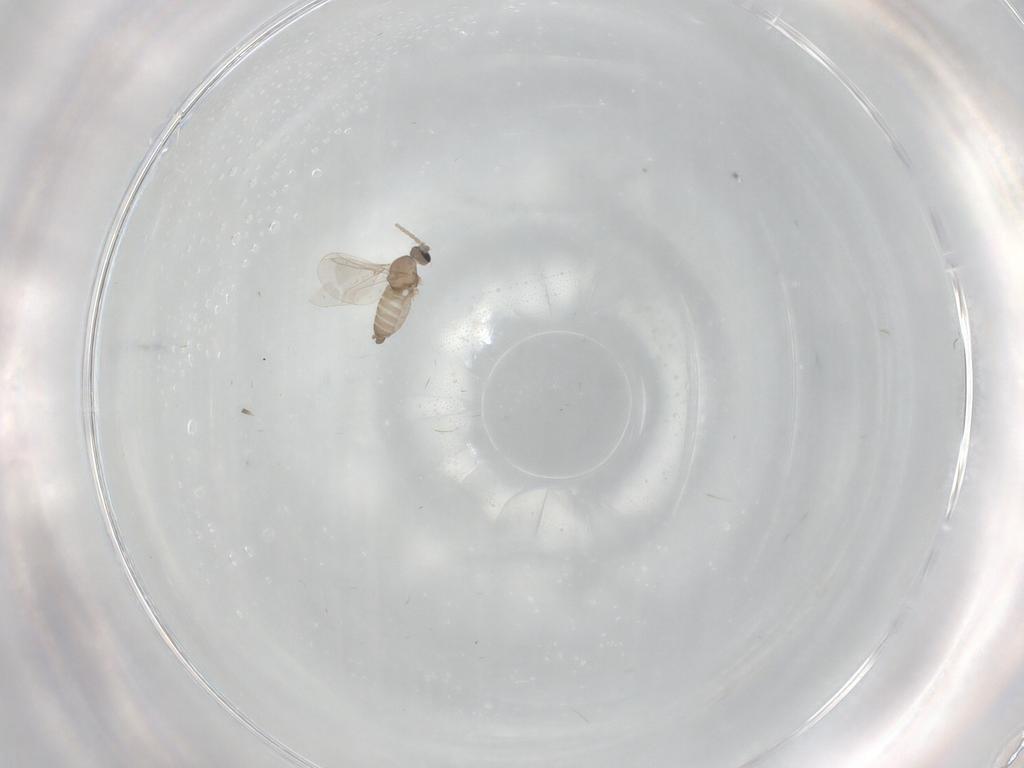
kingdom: Animalia
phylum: Arthropoda
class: Insecta
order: Diptera
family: Cecidomyiidae
